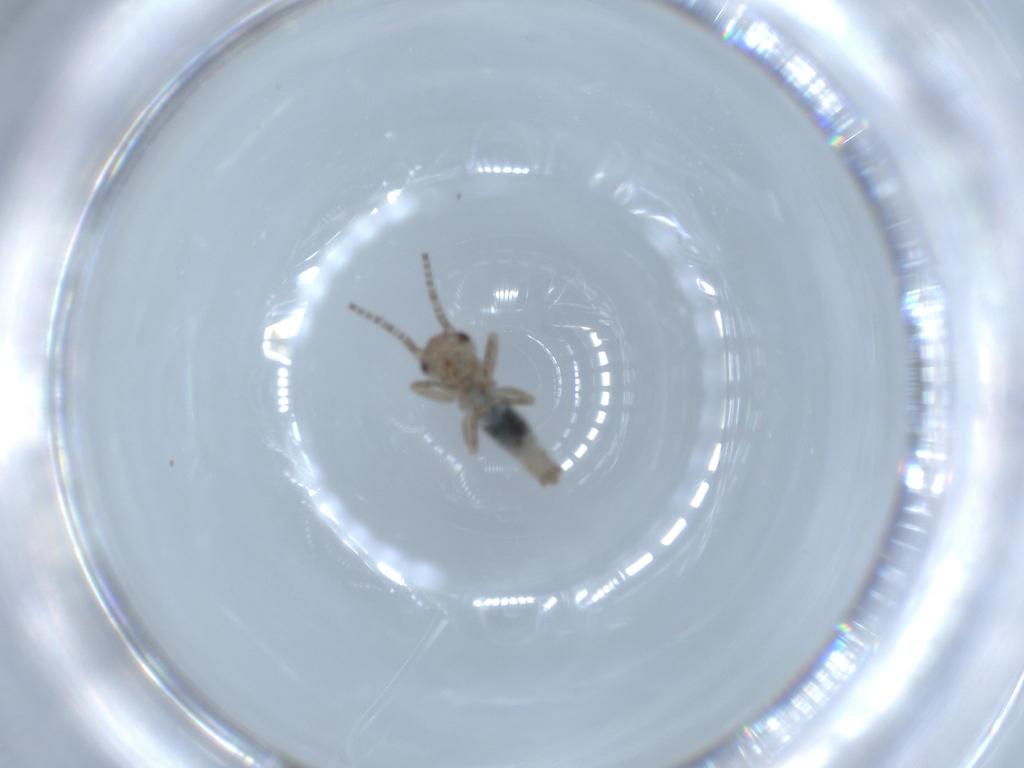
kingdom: Animalia
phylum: Arthropoda
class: Insecta
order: Orthoptera
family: Gryllidae
